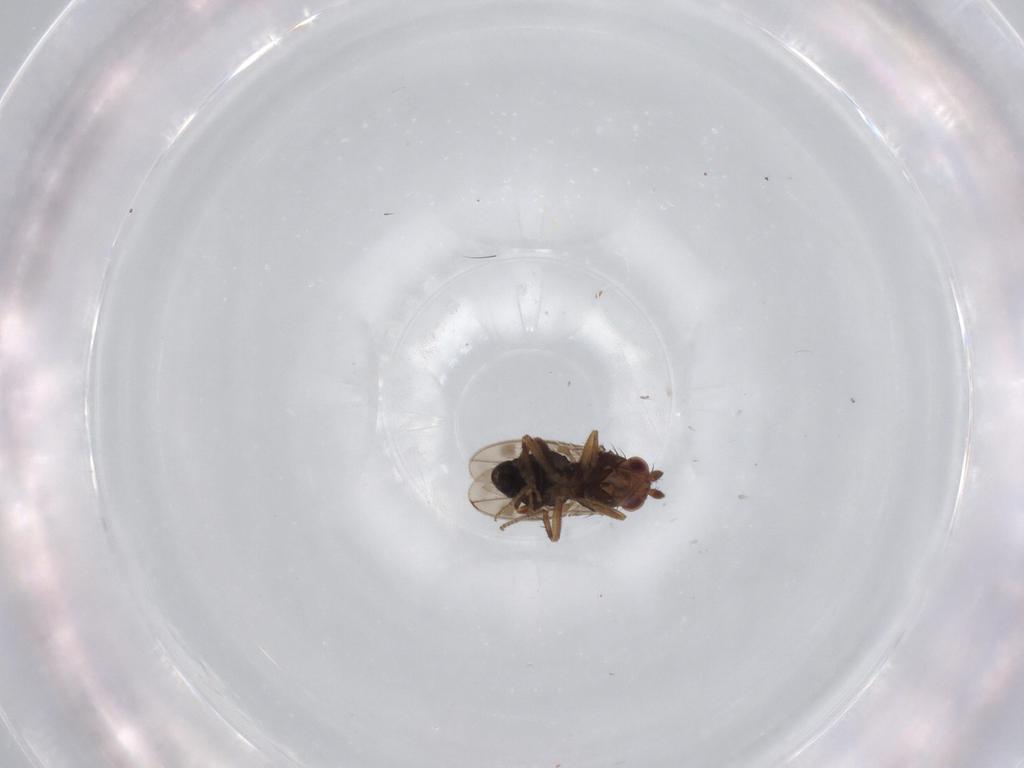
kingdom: Animalia
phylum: Arthropoda
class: Insecta
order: Diptera
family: Sphaeroceridae
